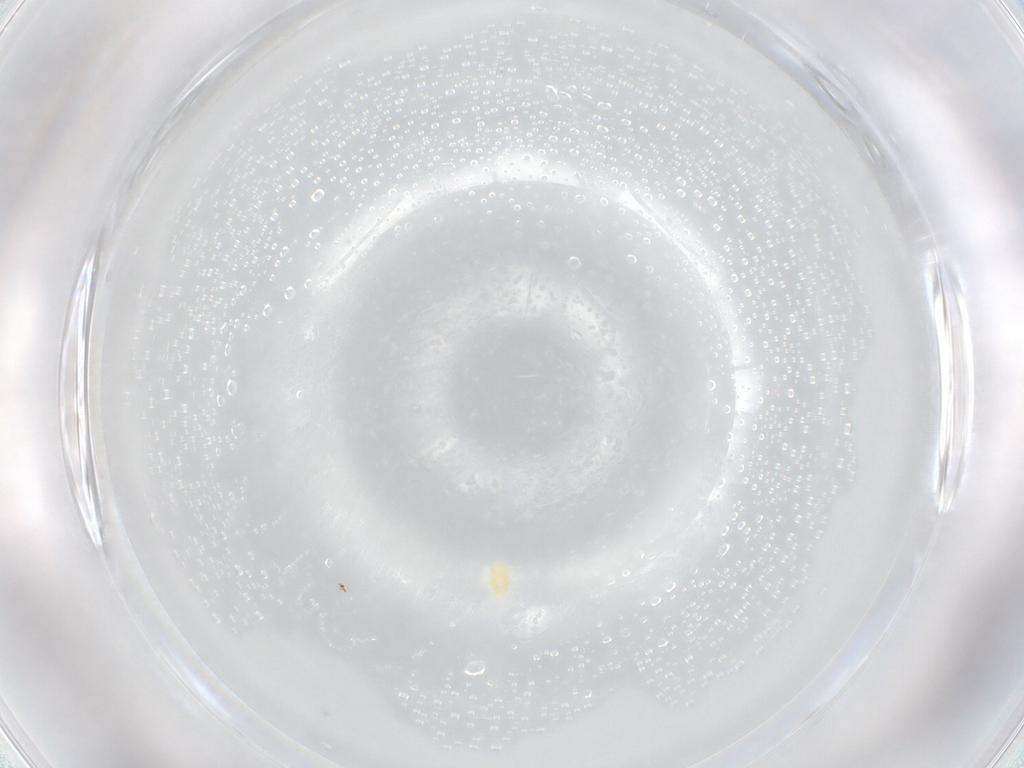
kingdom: Animalia
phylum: Arthropoda
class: Arachnida
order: Trombidiformes
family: Eupodidae
